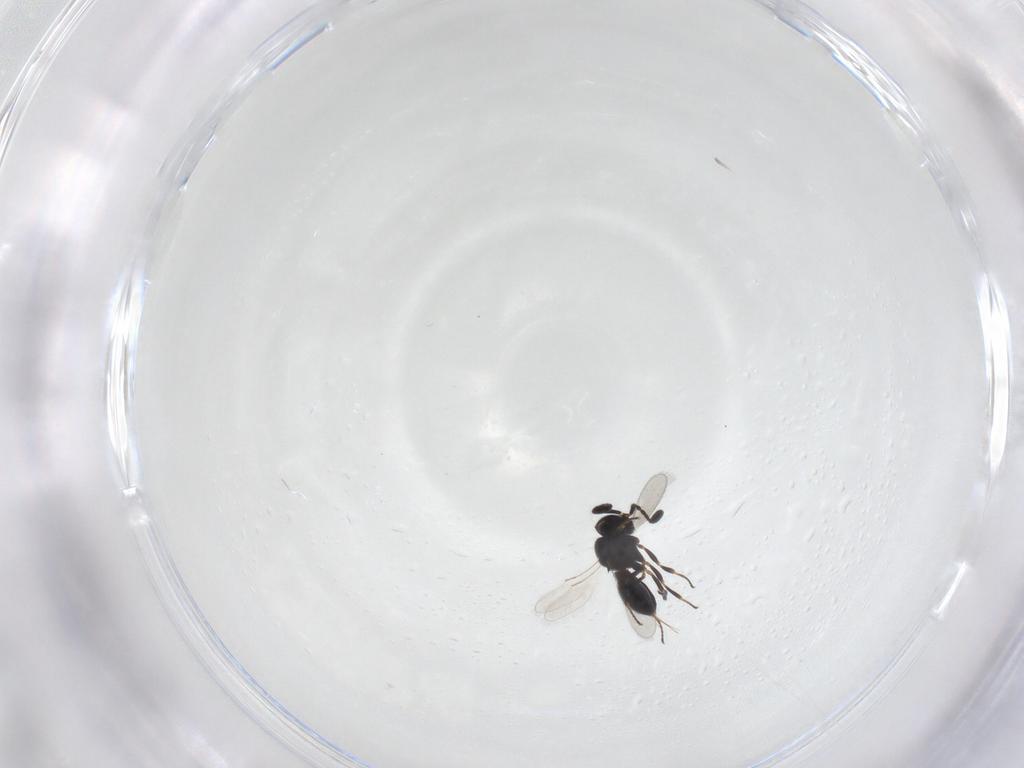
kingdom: Animalia
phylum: Arthropoda
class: Insecta
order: Hymenoptera
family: Scelionidae
